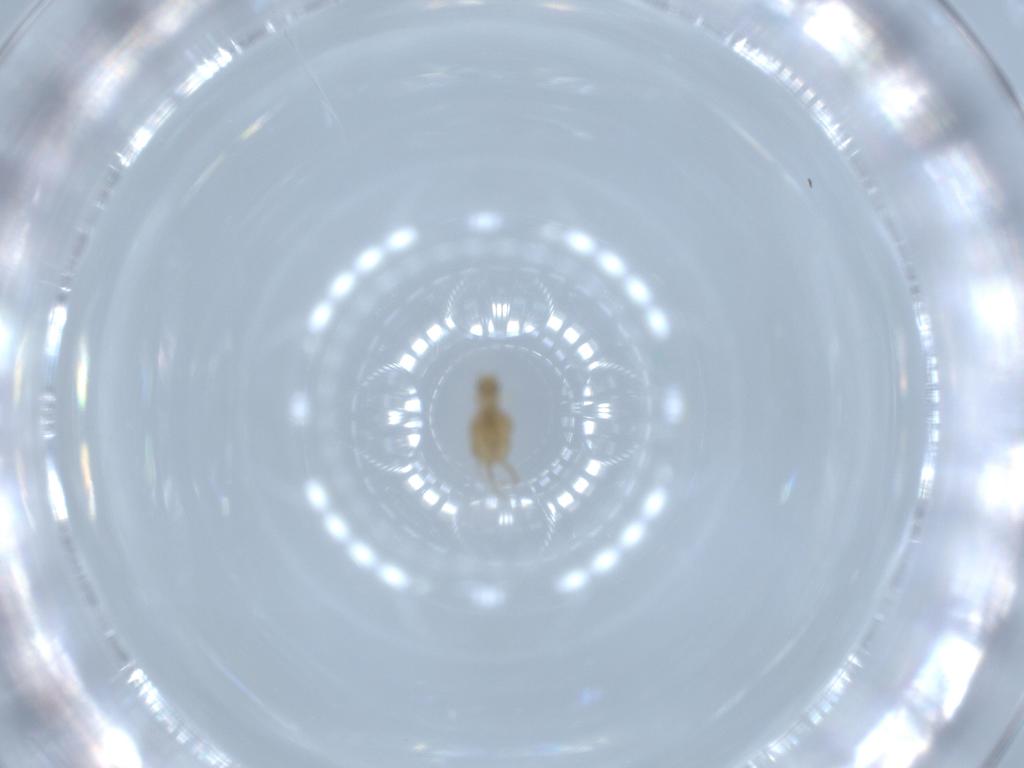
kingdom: Animalia
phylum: Arthropoda
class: Insecta
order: Diptera
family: Phoridae
